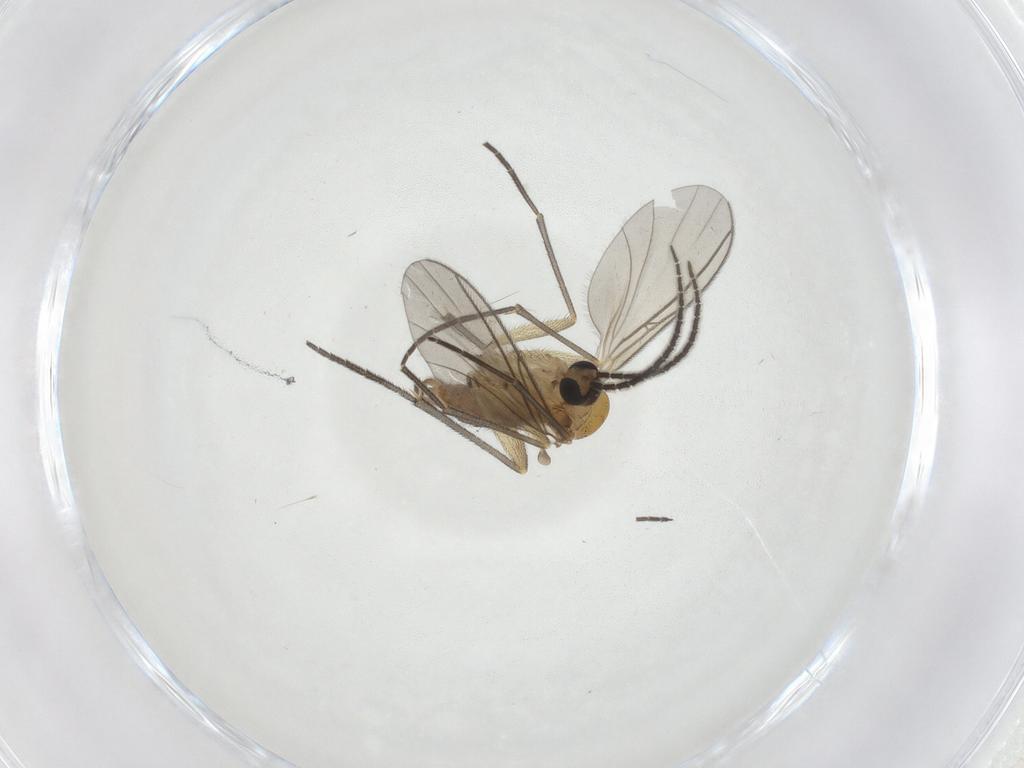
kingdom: Animalia
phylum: Arthropoda
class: Insecta
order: Diptera
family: Sciaridae
